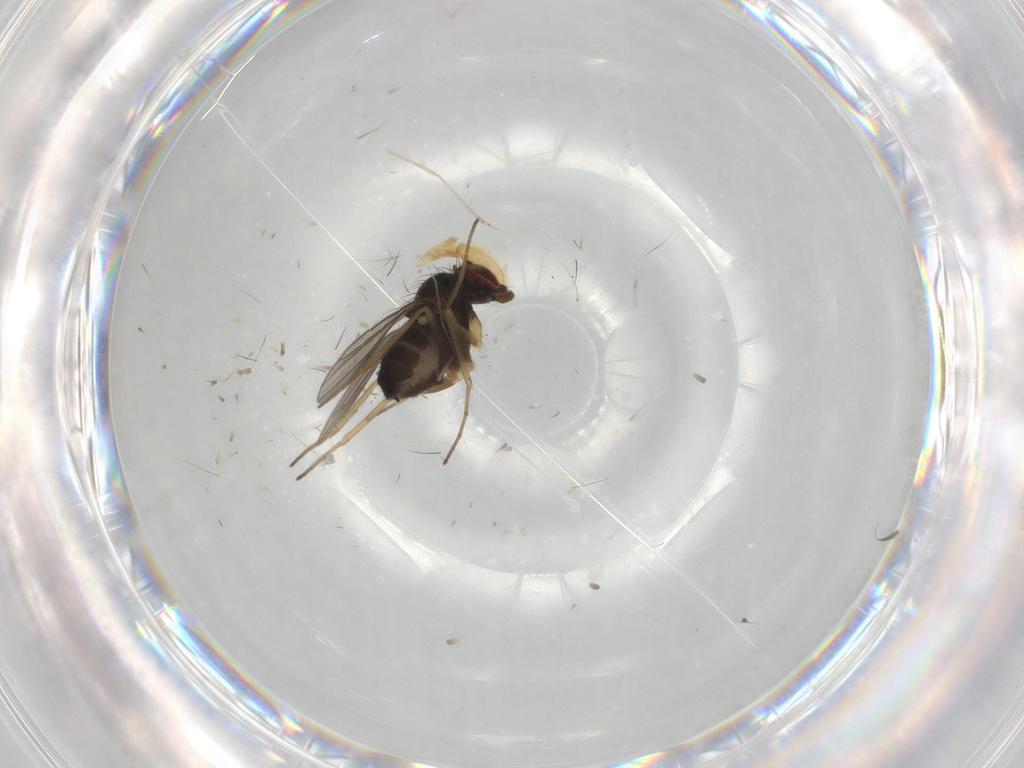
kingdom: Animalia
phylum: Arthropoda
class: Insecta
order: Diptera
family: Dolichopodidae
